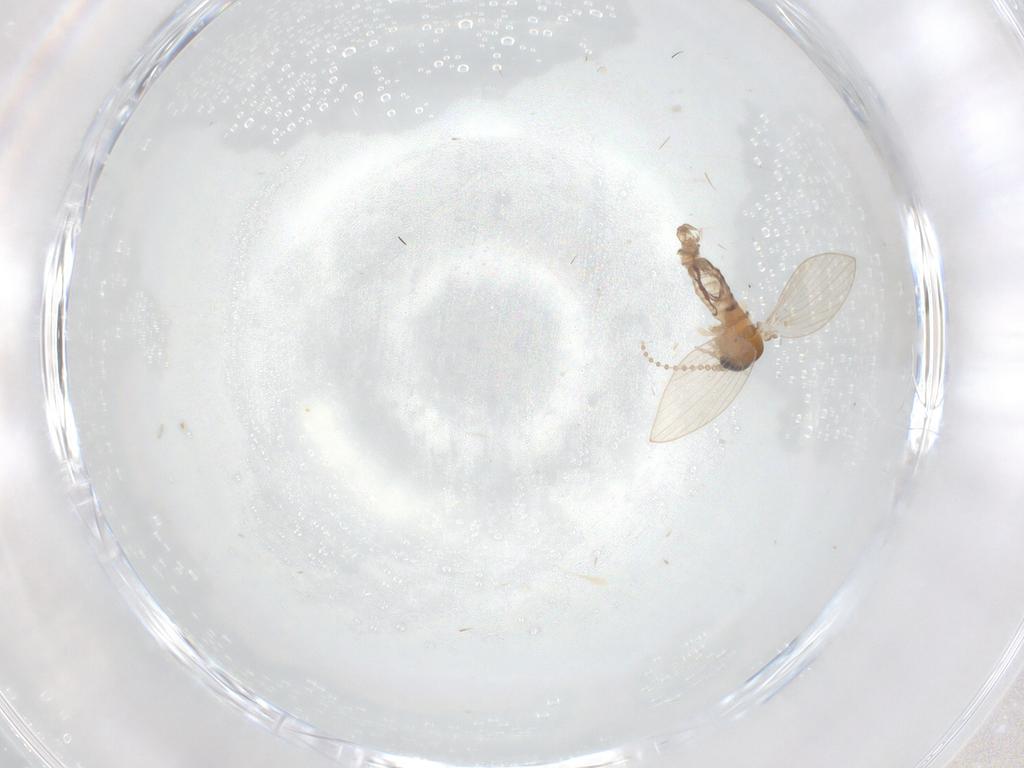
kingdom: Animalia
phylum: Arthropoda
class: Insecta
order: Diptera
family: Psychodidae
